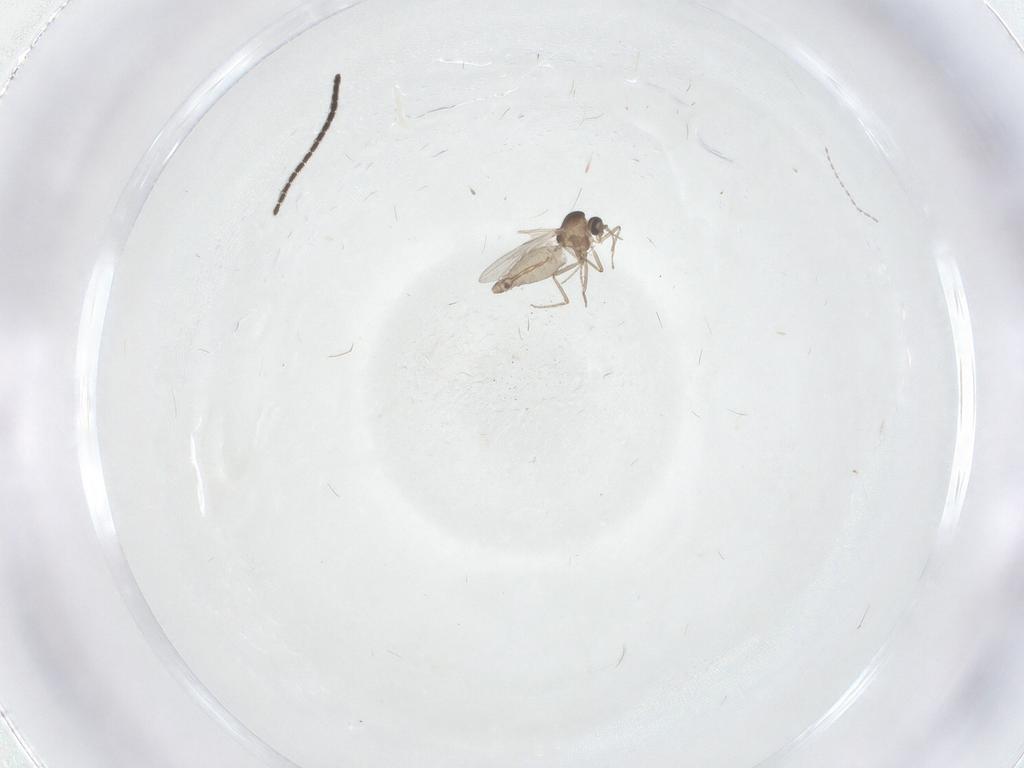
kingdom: Animalia
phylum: Arthropoda
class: Insecta
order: Diptera
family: Sciaridae
